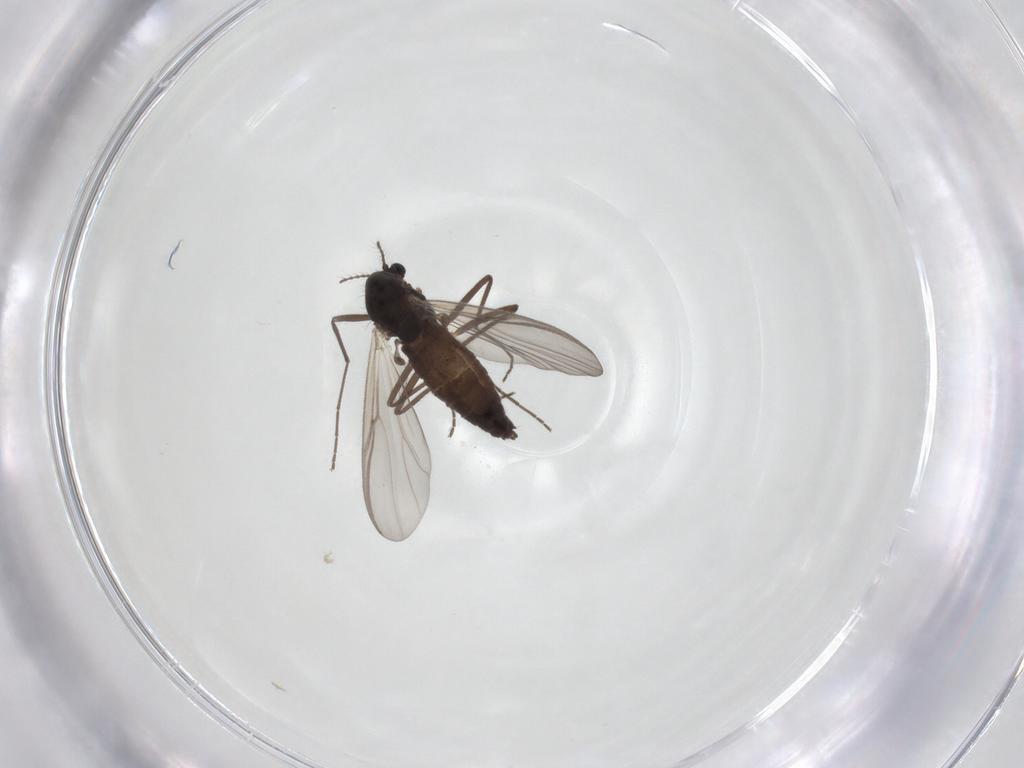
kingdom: Animalia
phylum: Arthropoda
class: Insecta
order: Diptera
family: Chironomidae
